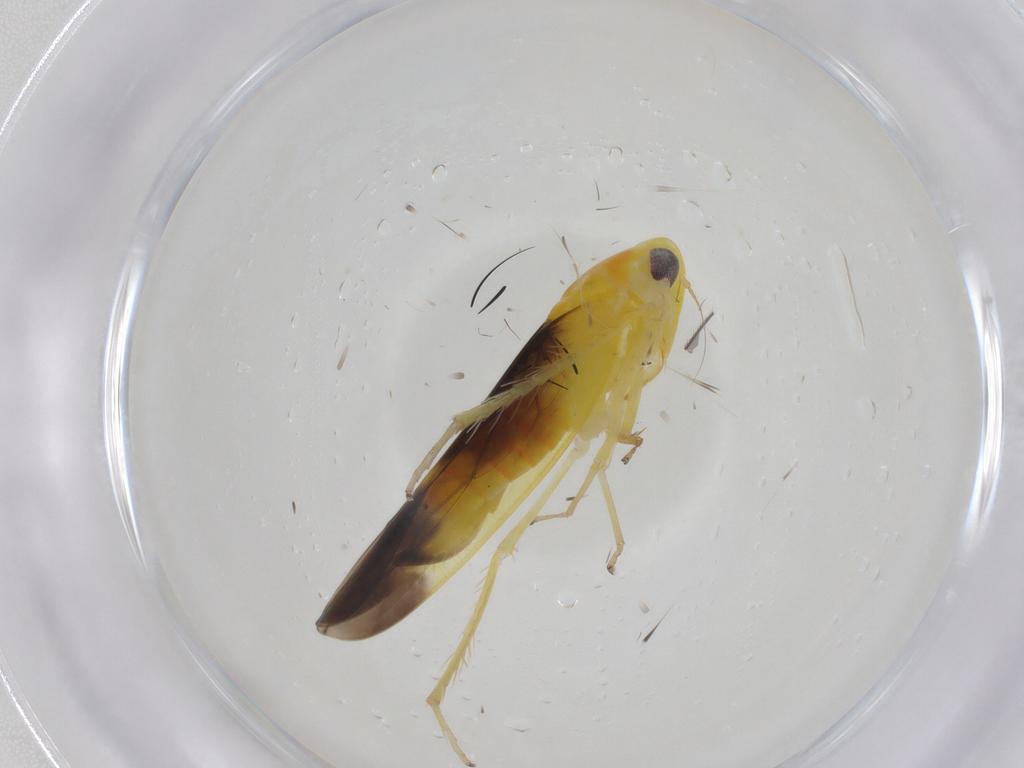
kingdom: Animalia
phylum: Arthropoda
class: Insecta
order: Hemiptera
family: Cicadellidae
